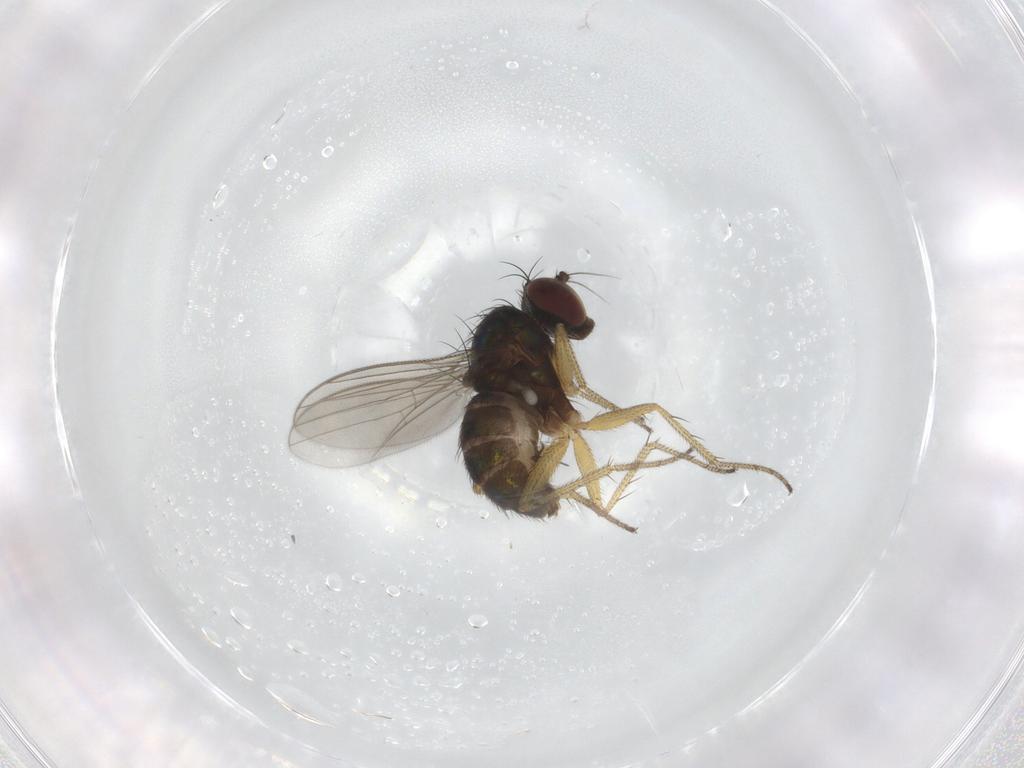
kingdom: Animalia
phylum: Arthropoda
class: Insecta
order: Diptera
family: Chironomidae
